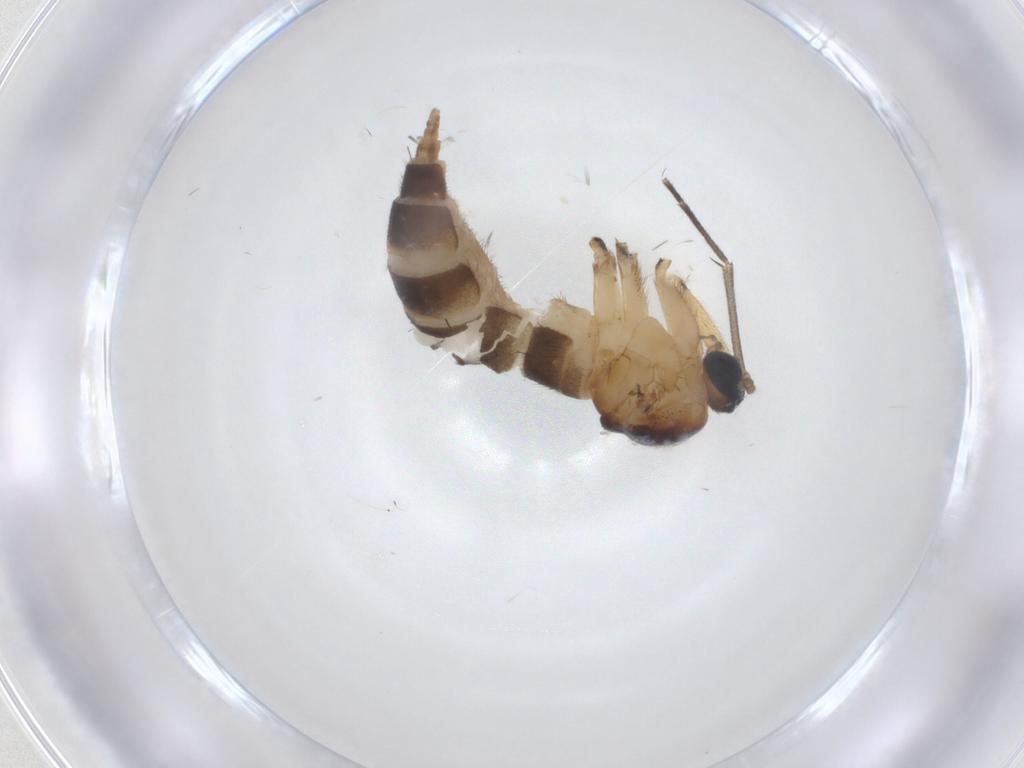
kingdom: Animalia
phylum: Arthropoda
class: Insecta
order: Diptera
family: Sciaridae
